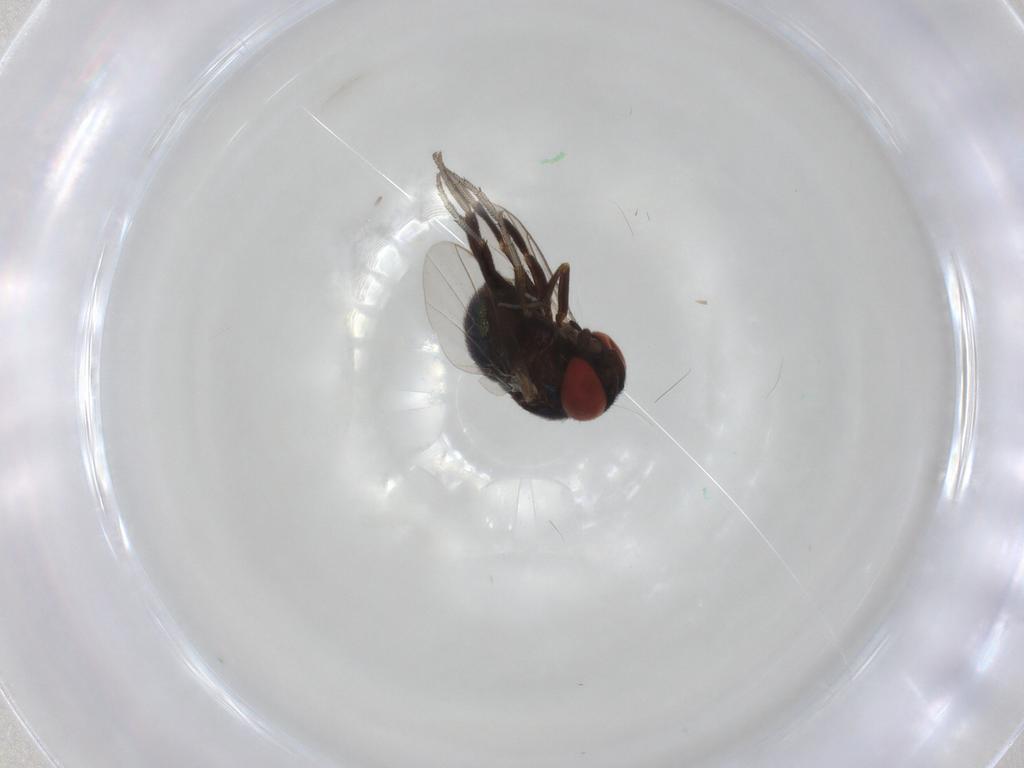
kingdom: Animalia
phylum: Arthropoda
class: Insecta
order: Diptera
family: Cryptochetidae
